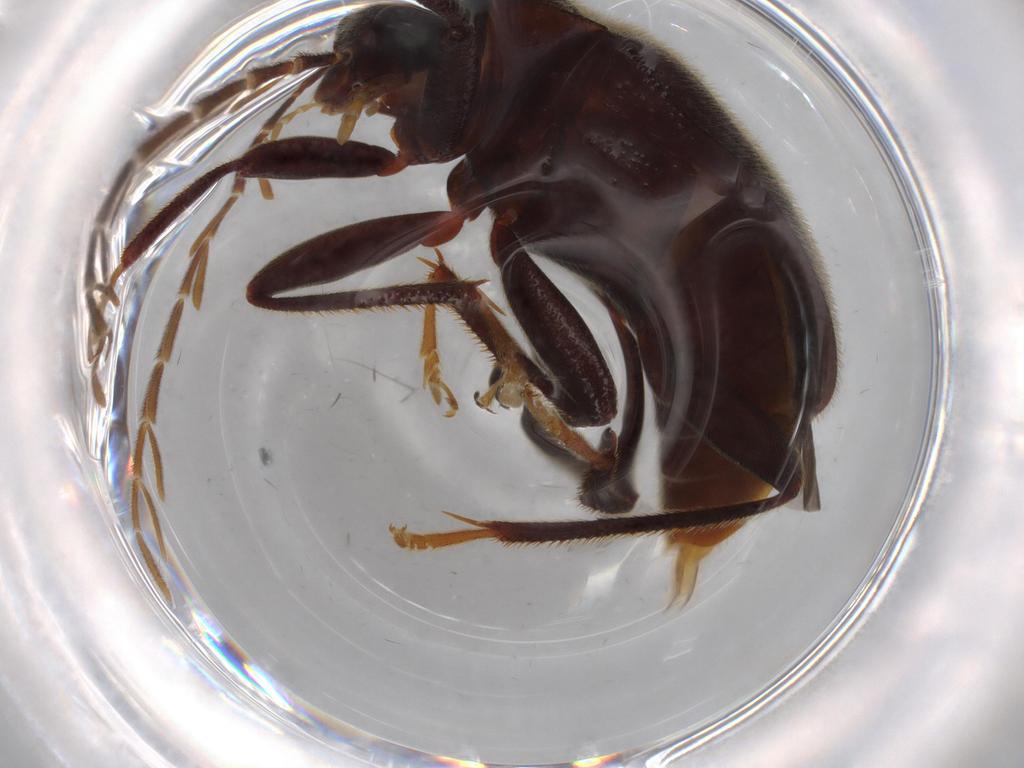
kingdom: Animalia
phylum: Arthropoda
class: Insecta
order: Coleoptera
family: Ptilodactylidae
